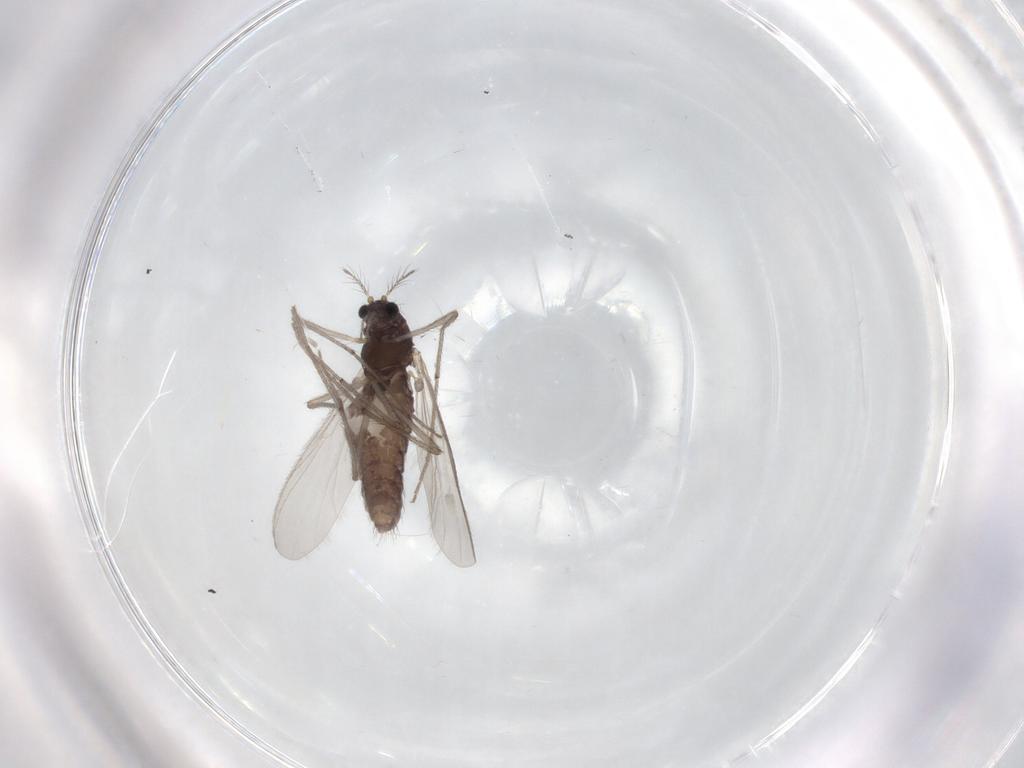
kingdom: Animalia
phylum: Arthropoda
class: Insecta
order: Diptera
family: Chironomidae
